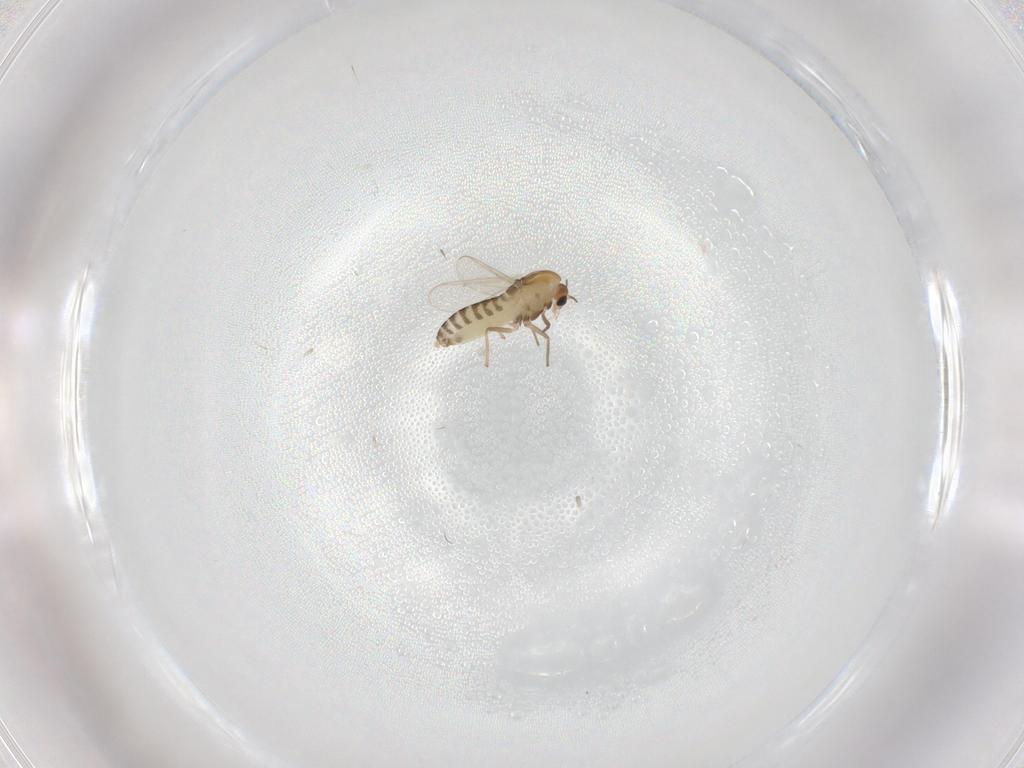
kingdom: Animalia
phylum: Arthropoda
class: Insecta
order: Diptera
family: Chironomidae
